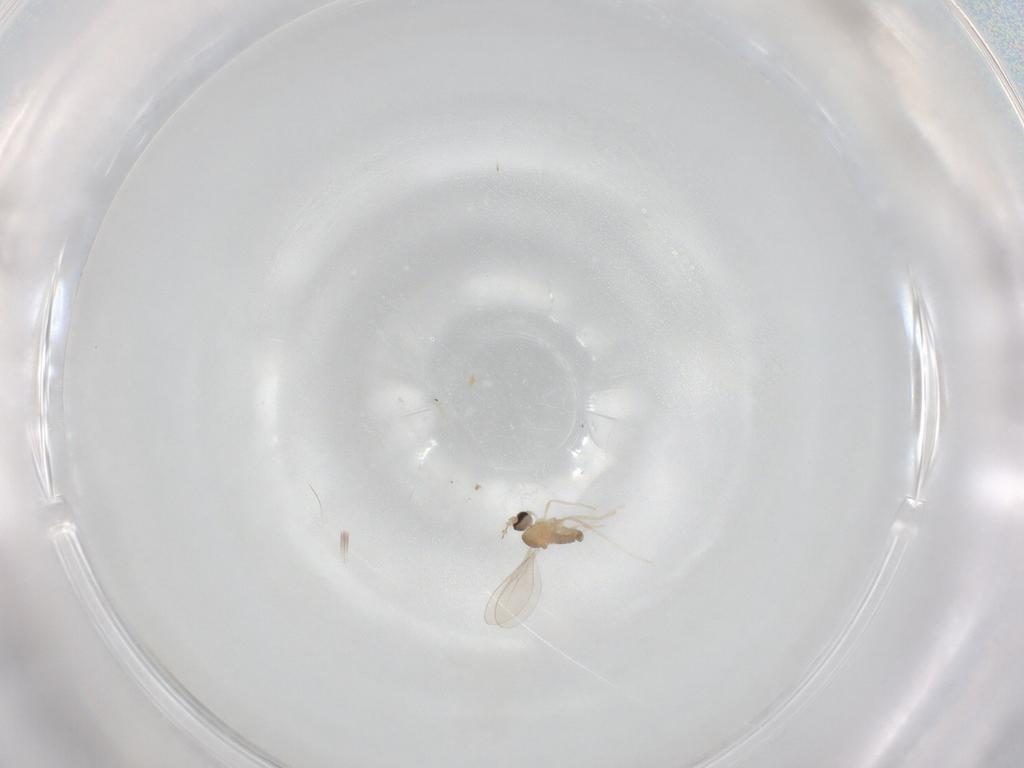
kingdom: Animalia
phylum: Arthropoda
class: Insecta
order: Diptera
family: Cecidomyiidae
